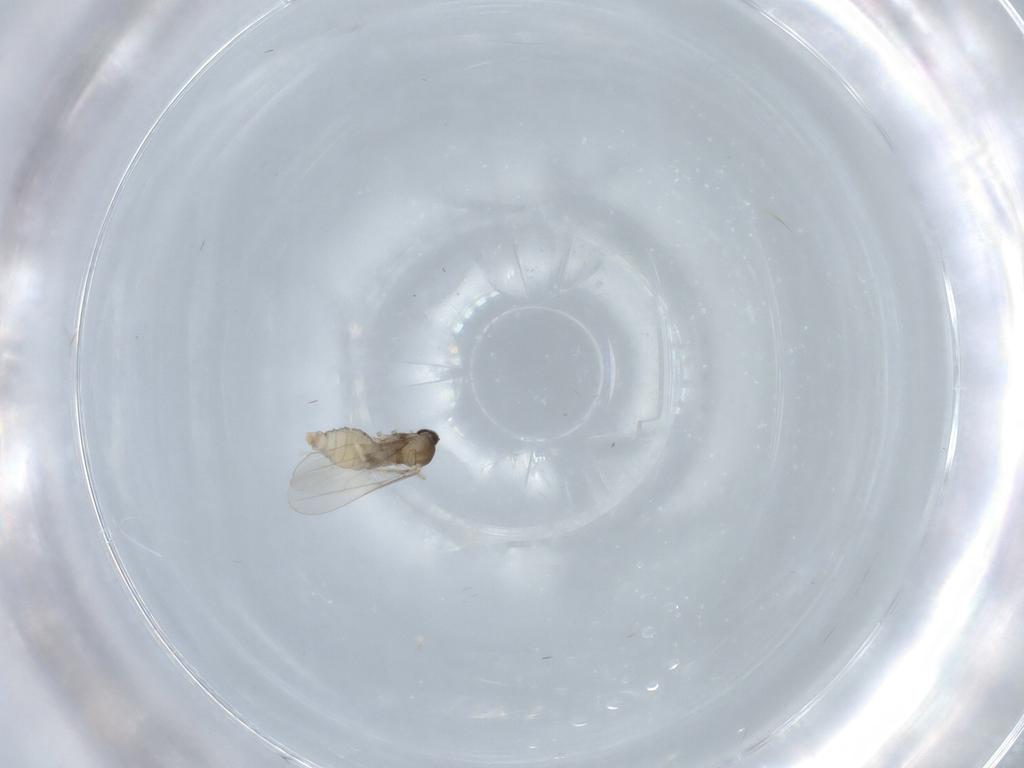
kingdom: Animalia
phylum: Arthropoda
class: Insecta
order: Diptera
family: Cecidomyiidae
